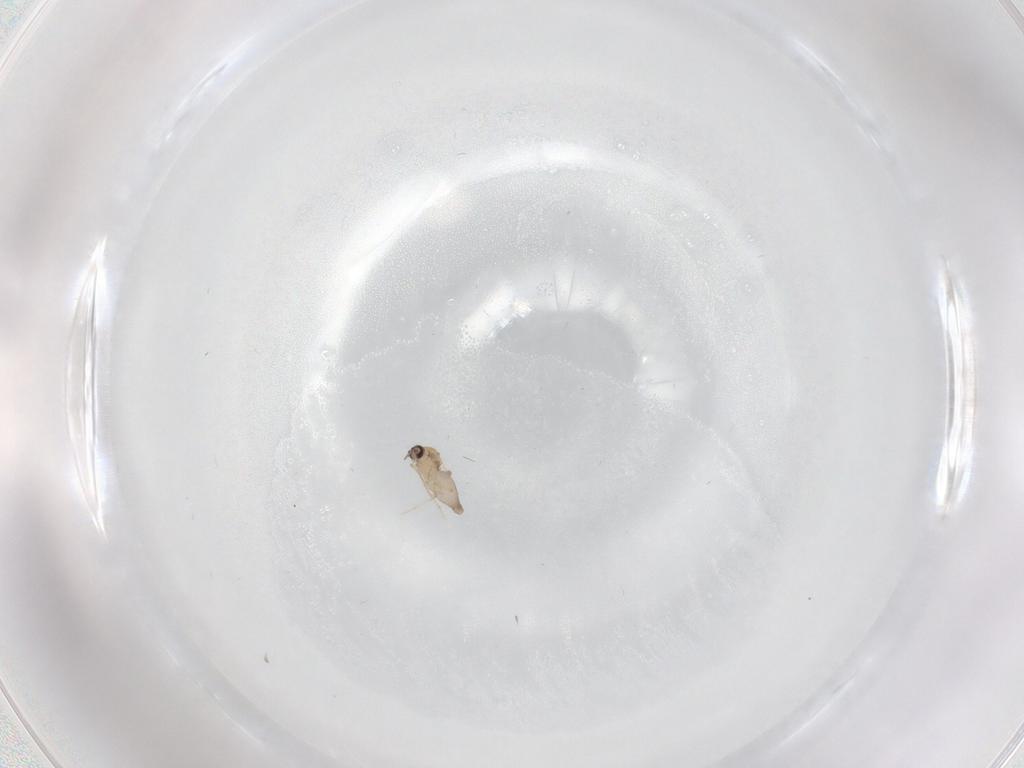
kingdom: Animalia
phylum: Arthropoda
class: Insecta
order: Diptera
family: Ceratopogonidae
